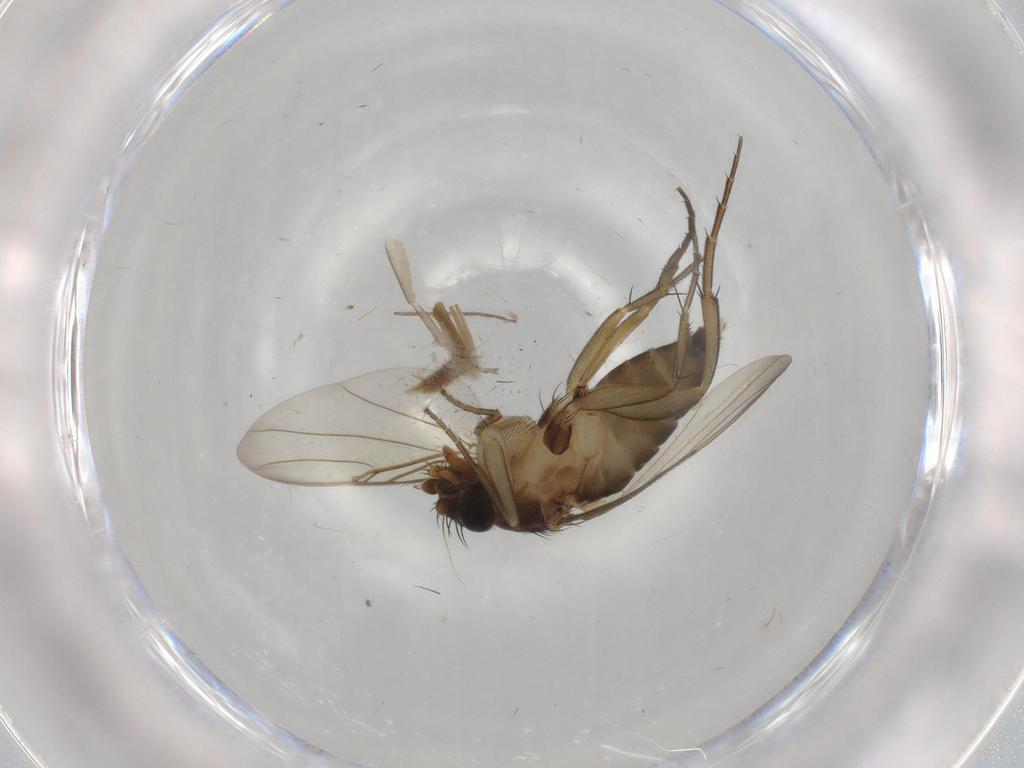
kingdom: Animalia
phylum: Arthropoda
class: Insecta
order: Diptera
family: Phoridae
